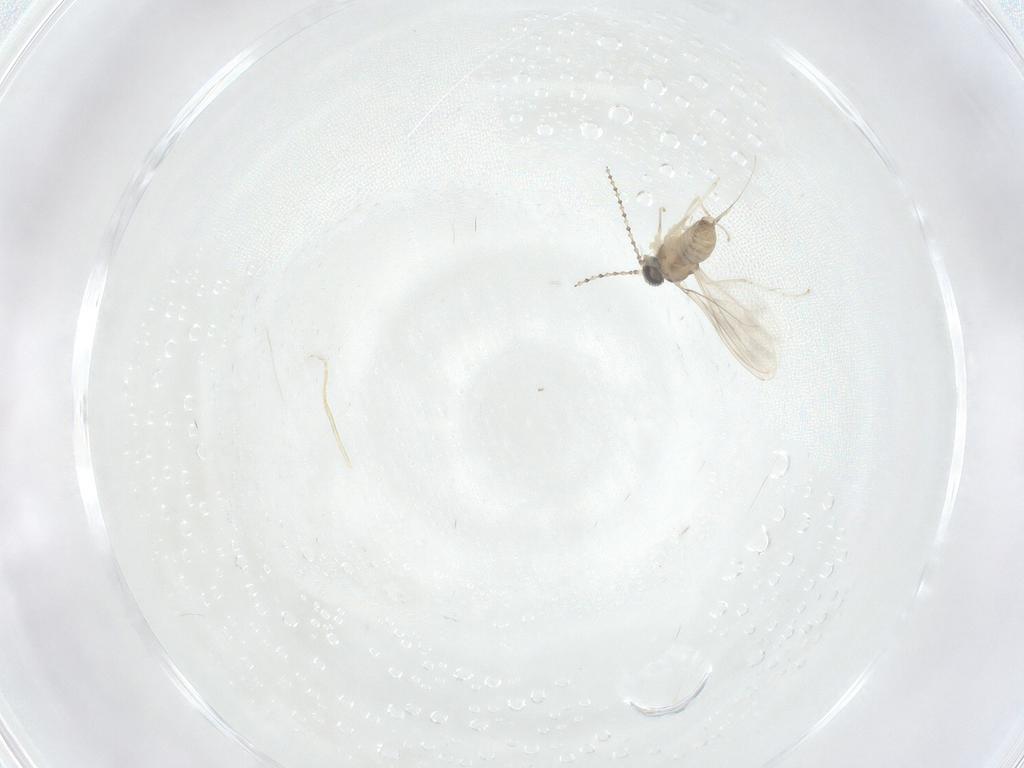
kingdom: Animalia
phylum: Arthropoda
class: Insecta
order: Diptera
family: Cecidomyiidae
